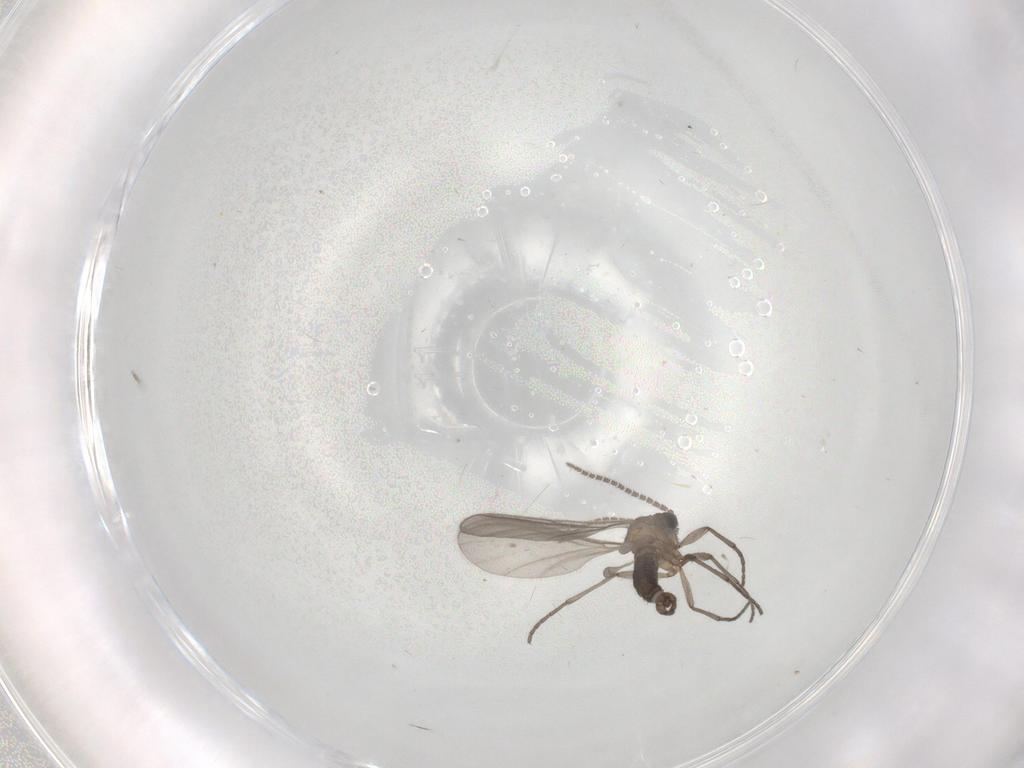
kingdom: Animalia
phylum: Arthropoda
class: Insecta
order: Diptera
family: Sciaridae
